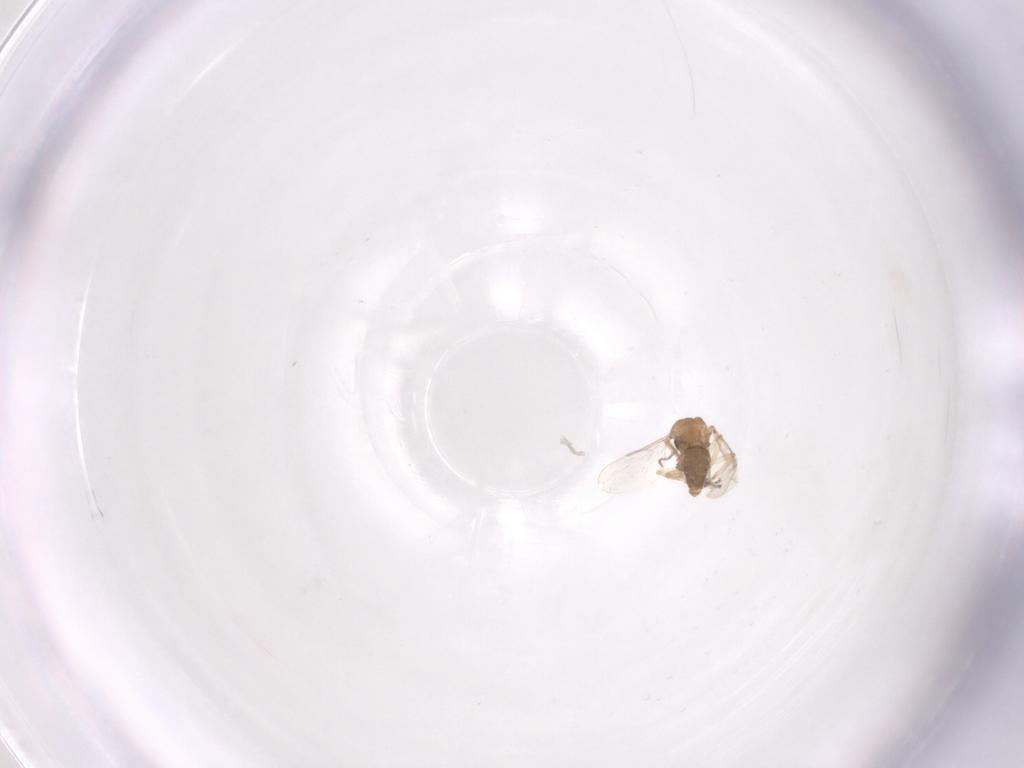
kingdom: Animalia
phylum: Arthropoda
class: Insecta
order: Diptera
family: Ceratopogonidae
